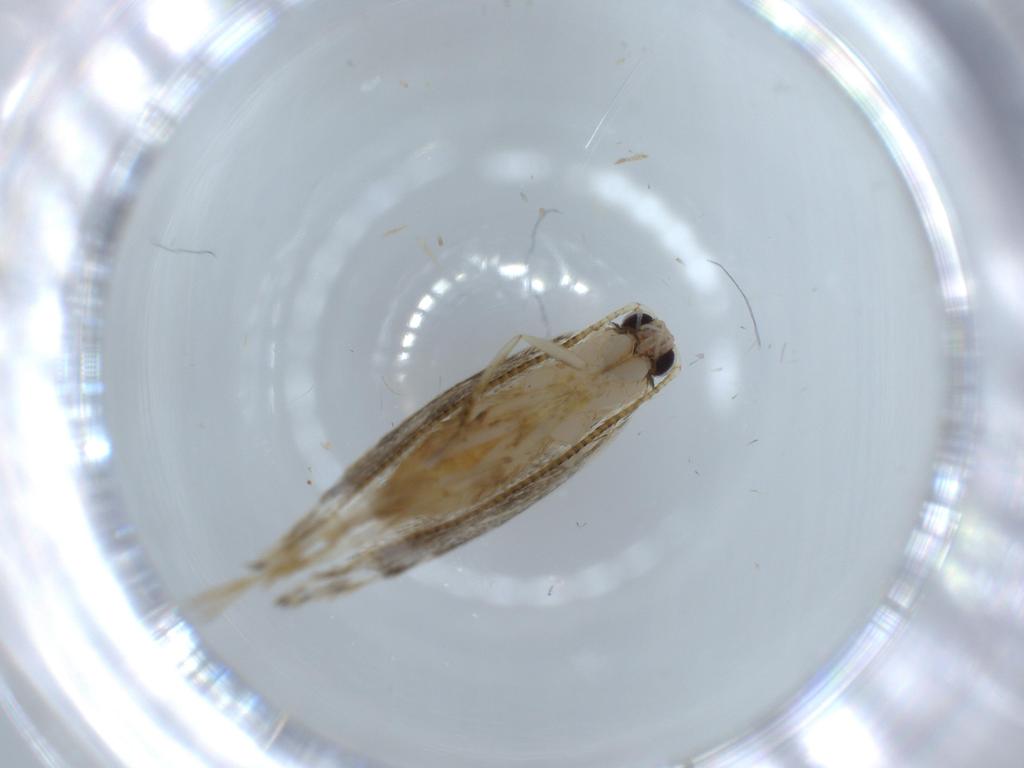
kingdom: Animalia
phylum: Arthropoda
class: Insecta
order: Lepidoptera
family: Tineidae
